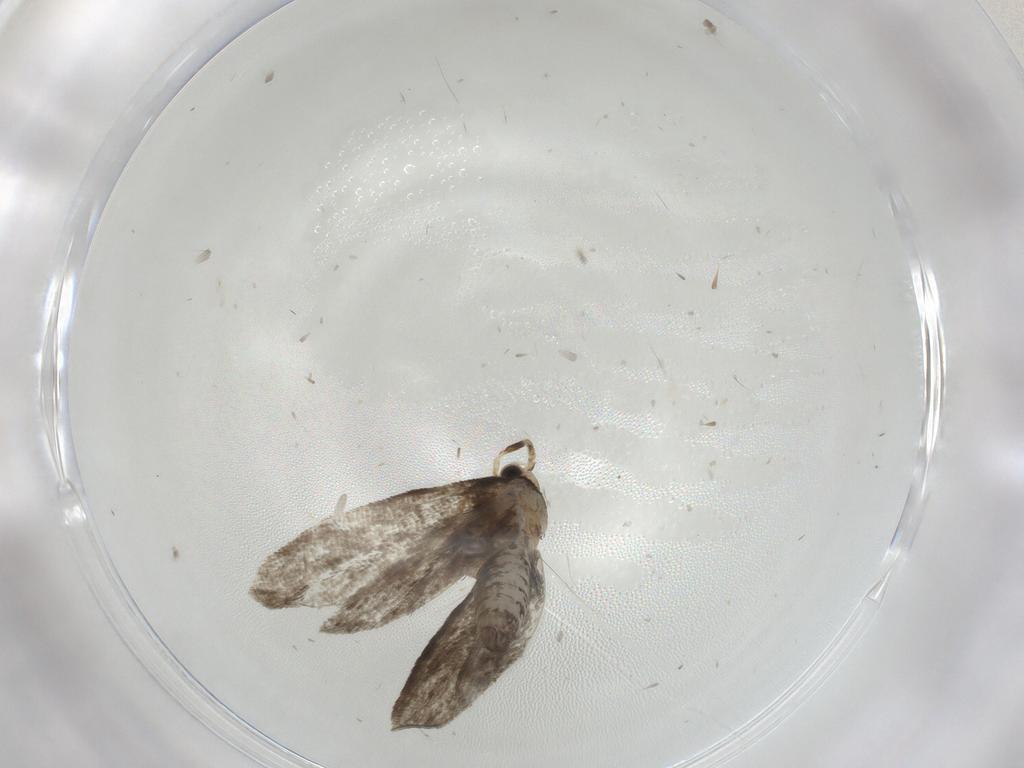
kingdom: Animalia
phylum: Arthropoda
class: Insecta
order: Lepidoptera
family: Psychidae
